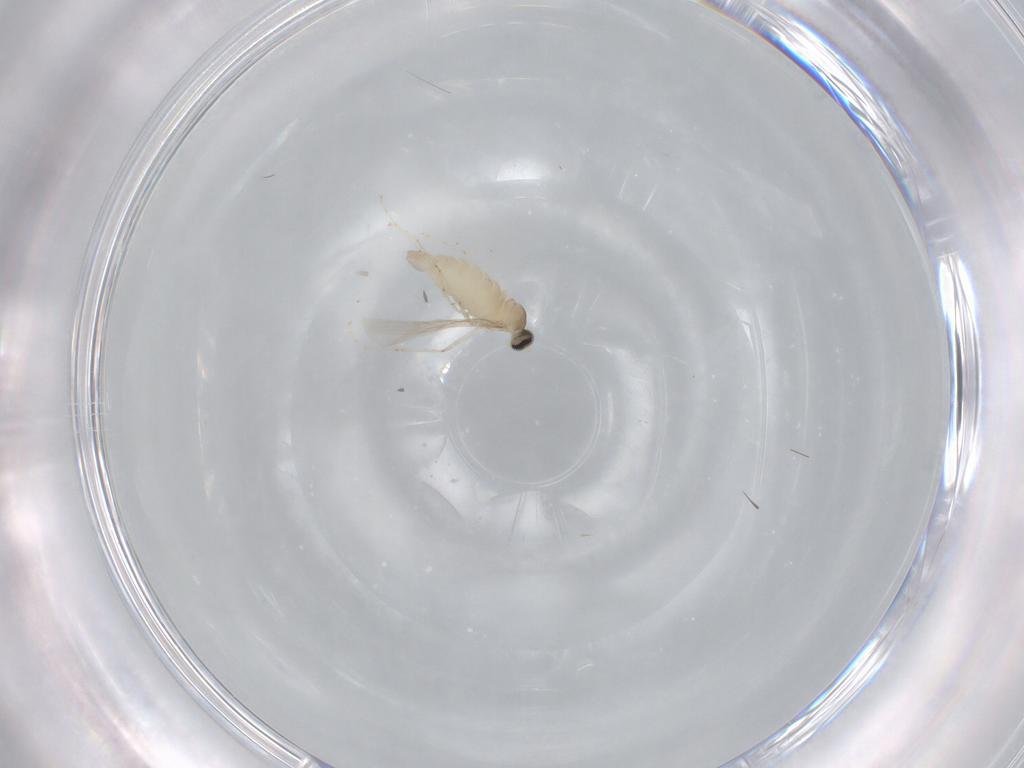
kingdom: Animalia
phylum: Arthropoda
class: Insecta
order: Diptera
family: Cecidomyiidae
